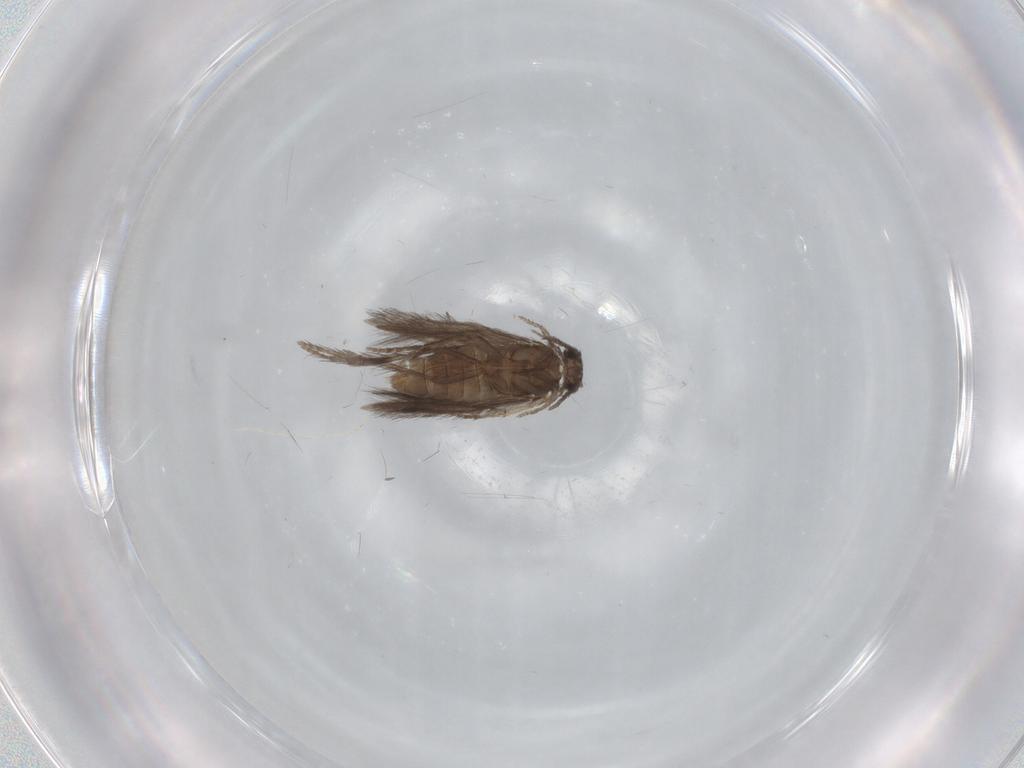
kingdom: Animalia
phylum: Arthropoda
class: Insecta
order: Trichoptera
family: Hydroptilidae
